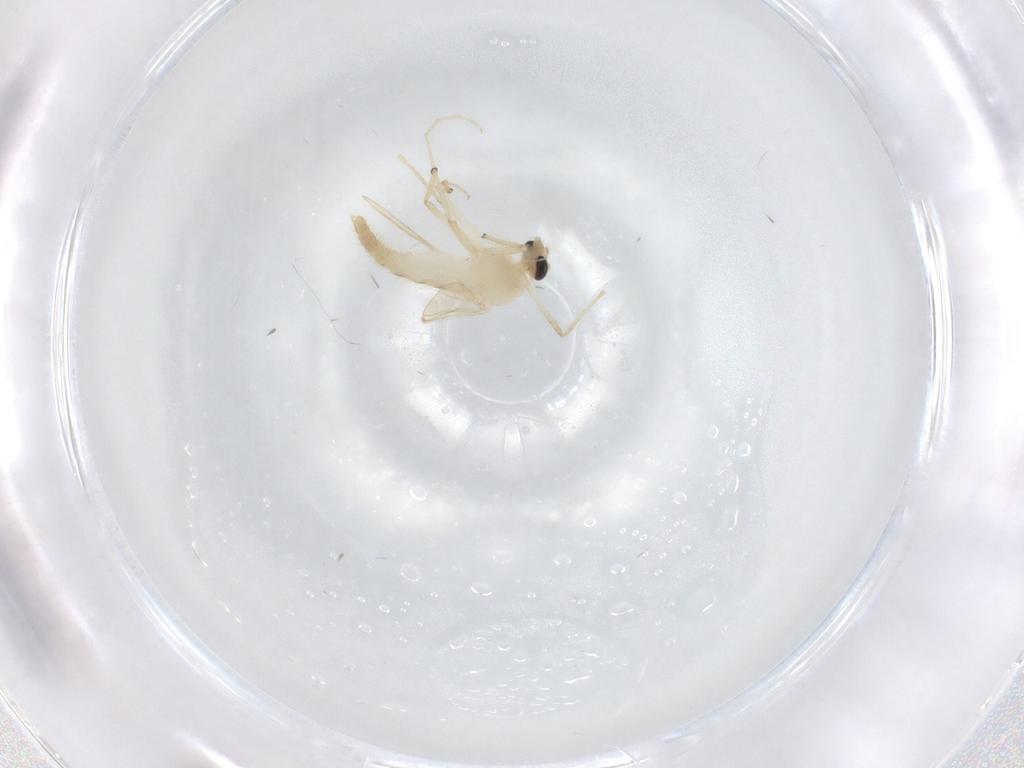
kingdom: Animalia
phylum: Arthropoda
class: Insecta
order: Diptera
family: Chironomidae
